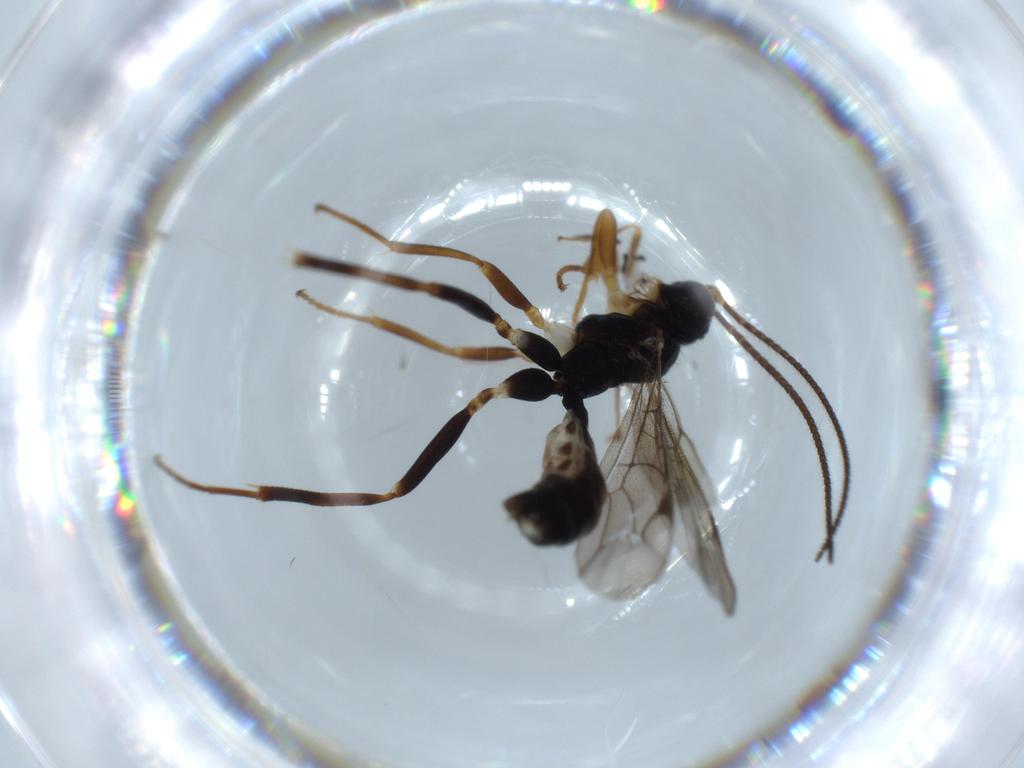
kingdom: Animalia
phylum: Arthropoda
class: Insecta
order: Hymenoptera
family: Ichneumonidae
